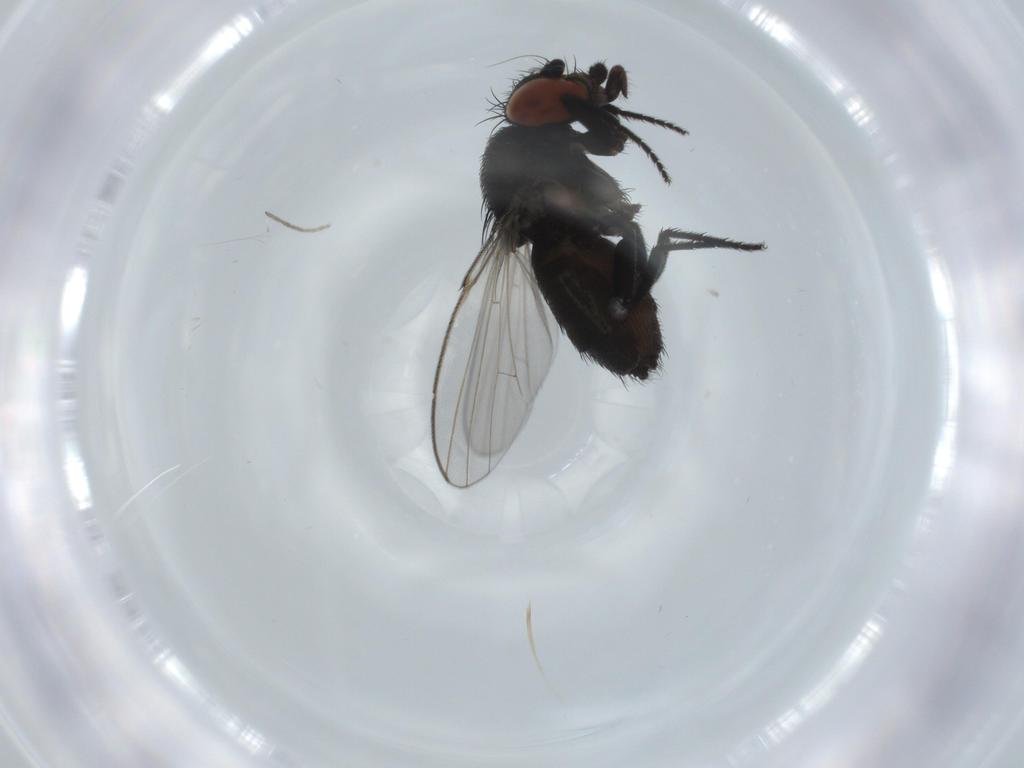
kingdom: Animalia
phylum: Arthropoda
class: Insecta
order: Diptera
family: Milichiidae
